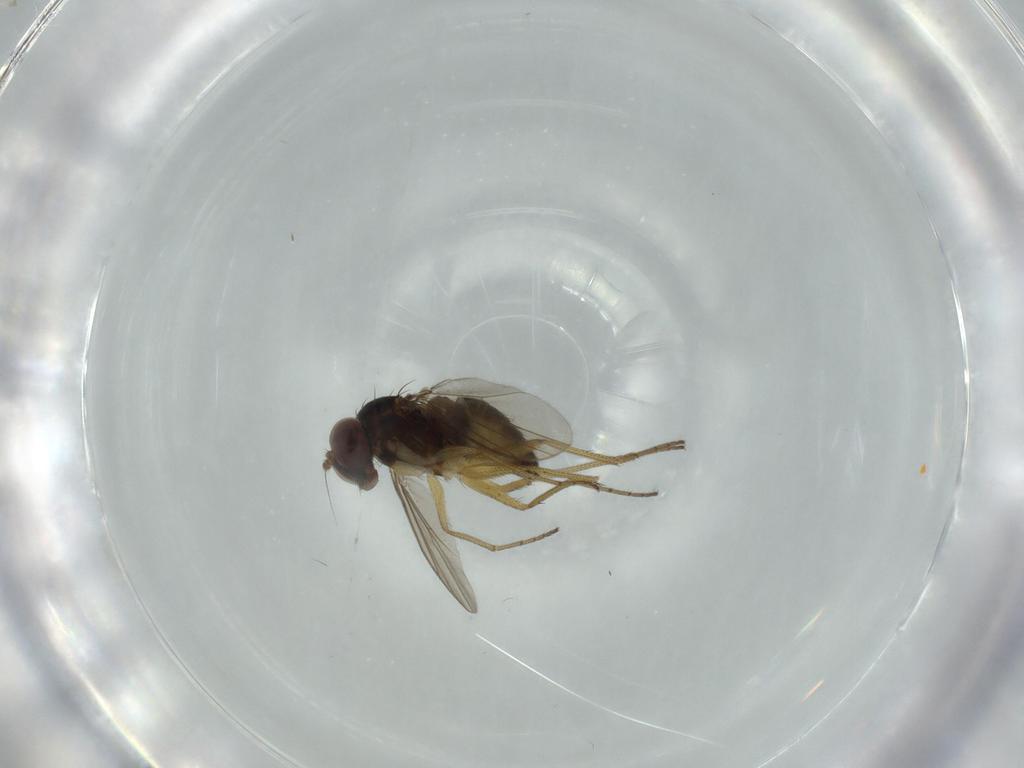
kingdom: Animalia
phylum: Arthropoda
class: Insecta
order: Diptera
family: Dolichopodidae
